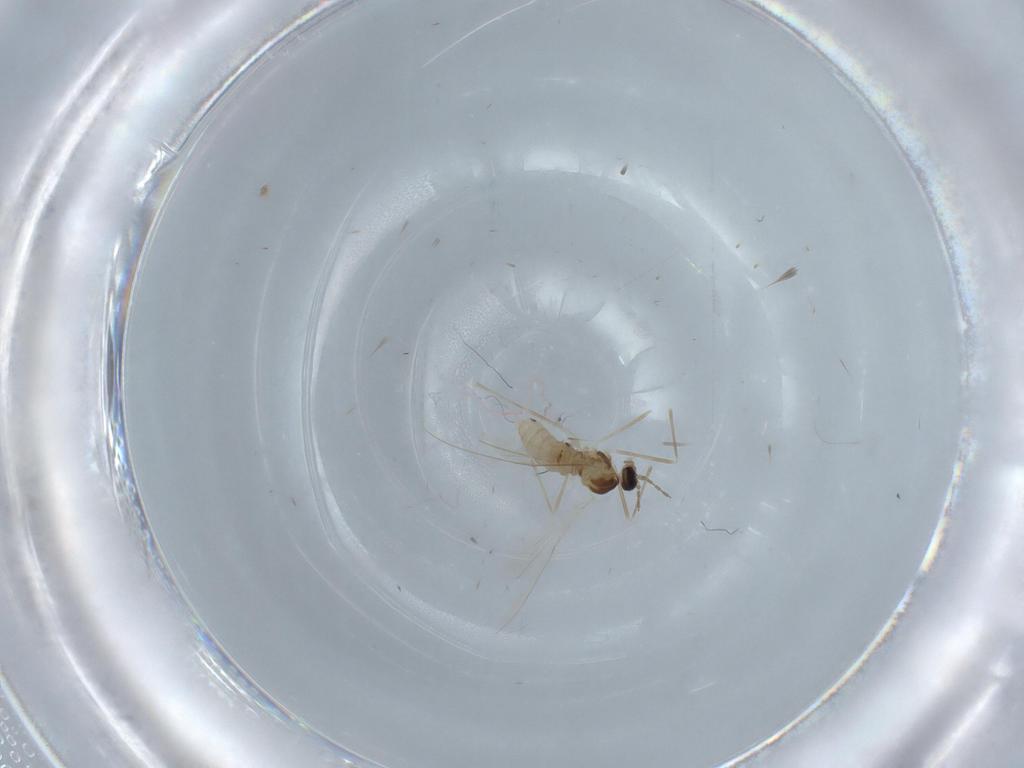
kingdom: Animalia
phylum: Arthropoda
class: Insecta
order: Diptera
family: Cecidomyiidae
